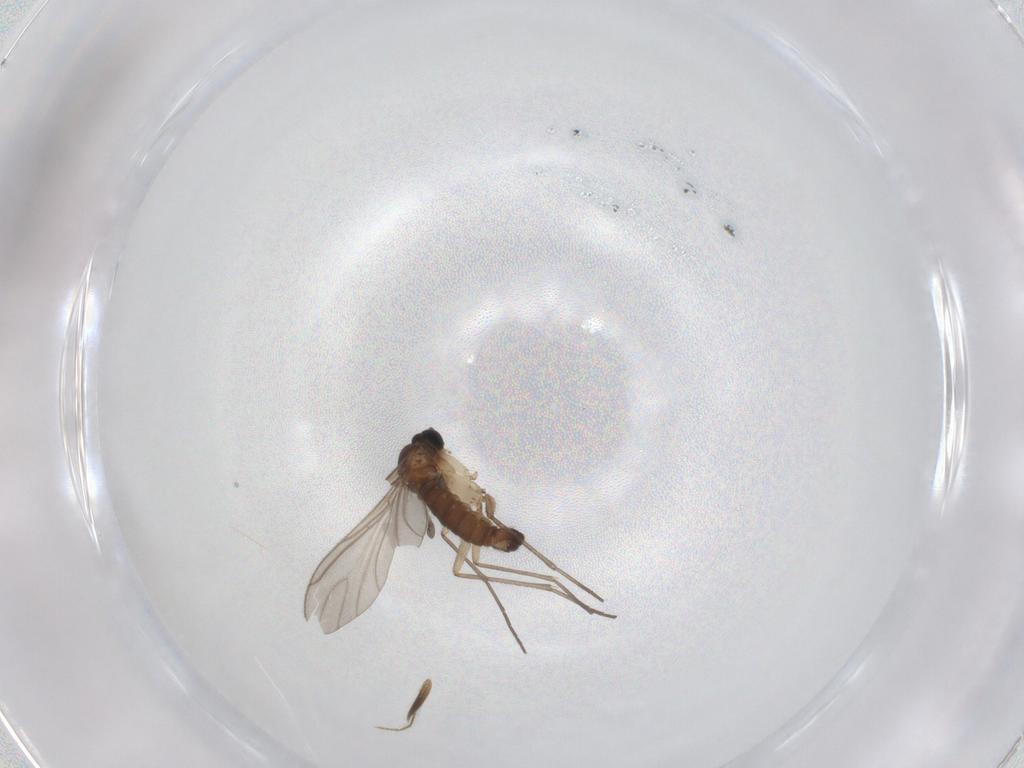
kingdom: Animalia
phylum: Arthropoda
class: Insecta
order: Diptera
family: Sciaridae
